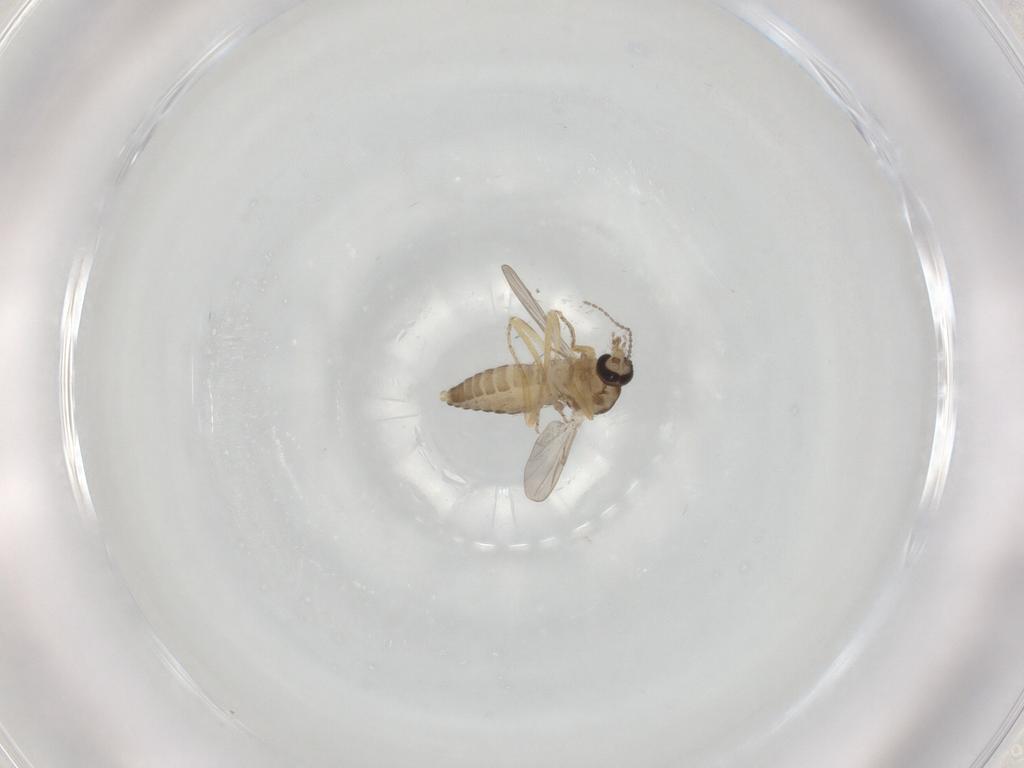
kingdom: Animalia
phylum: Arthropoda
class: Insecta
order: Diptera
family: Ceratopogonidae
